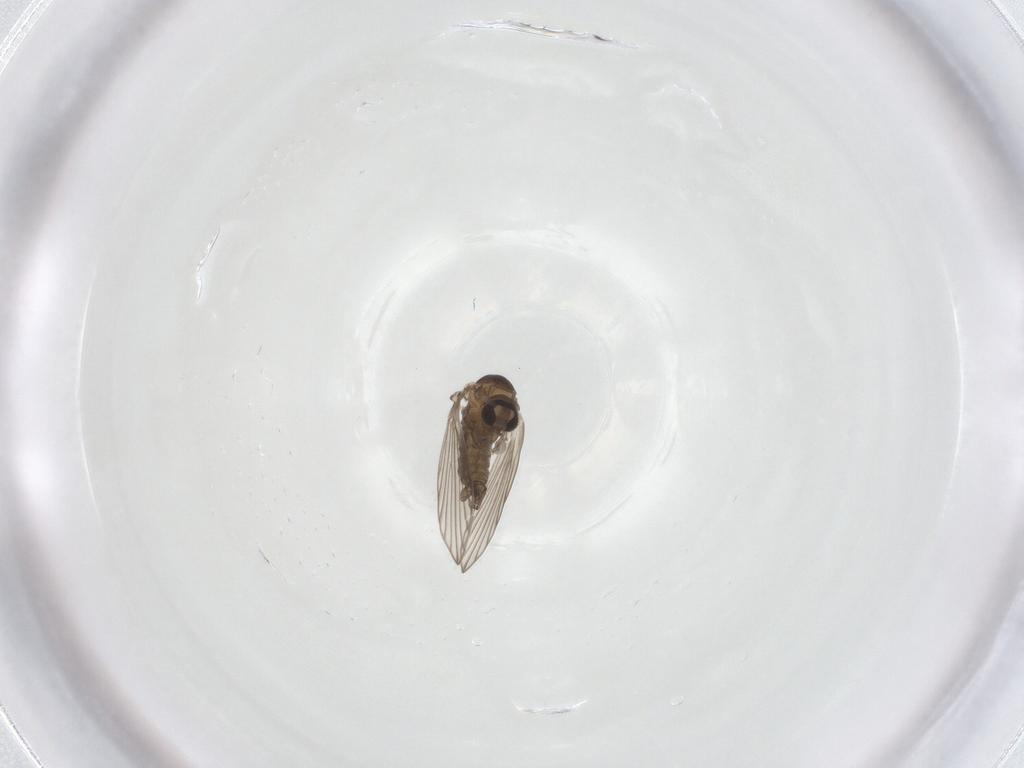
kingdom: Animalia
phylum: Arthropoda
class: Insecta
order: Diptera
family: Psychodidae
